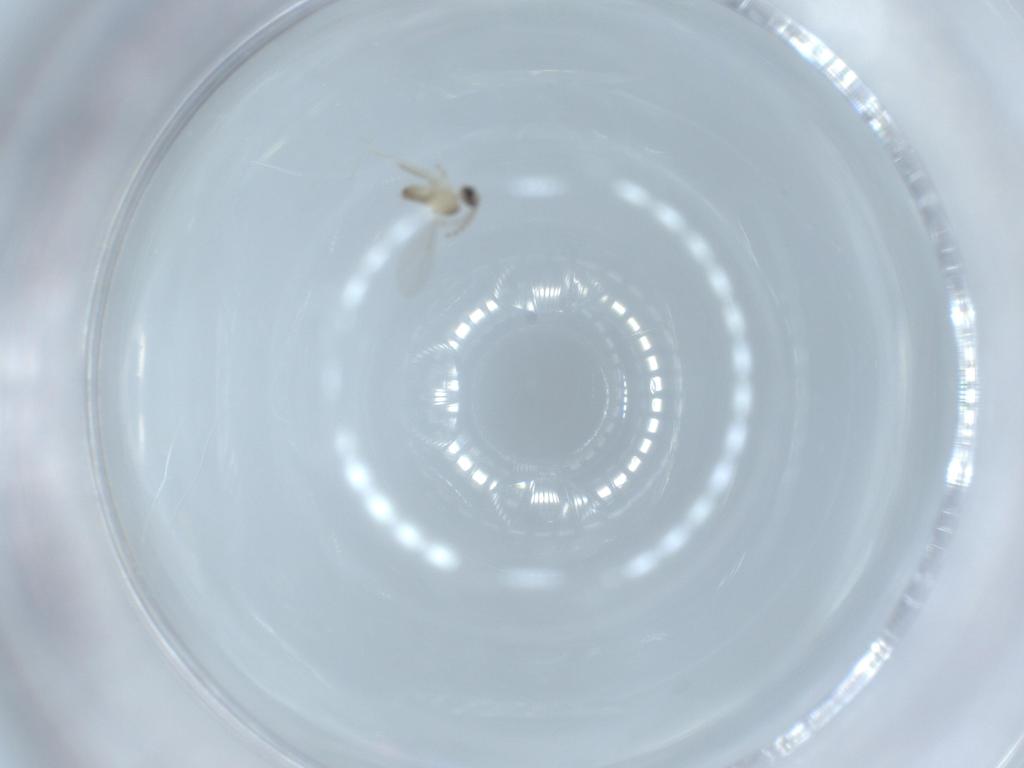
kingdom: Animalia
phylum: Arthropoda
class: Insecta
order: Diptera
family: Cecidomyiidae
